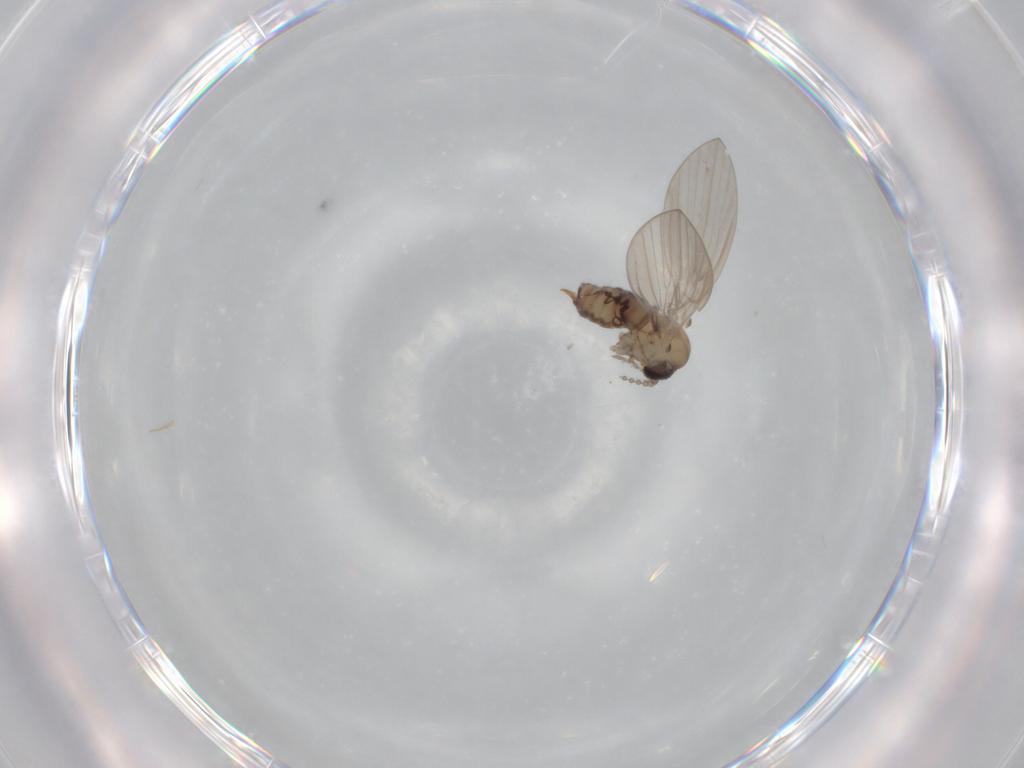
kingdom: Animalia
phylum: Arthropoda
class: Insecta
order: Diptera
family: Psychodidae
